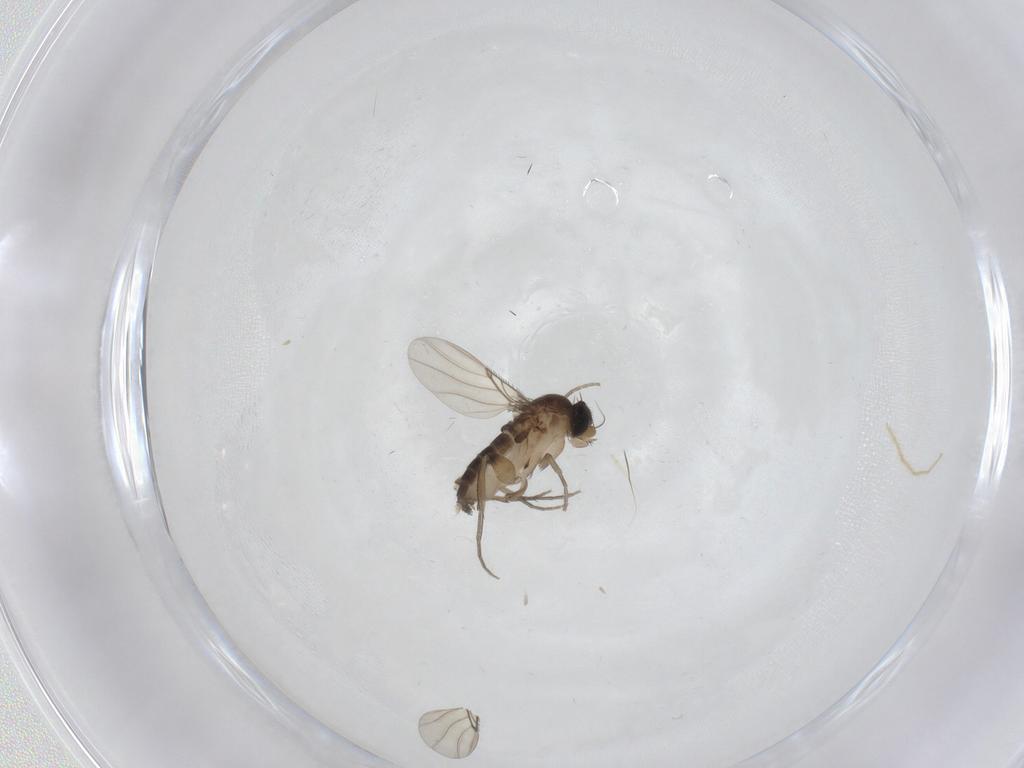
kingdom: Animalia
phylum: Arthropoda
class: Insecta
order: Diptera
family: Phoridae
